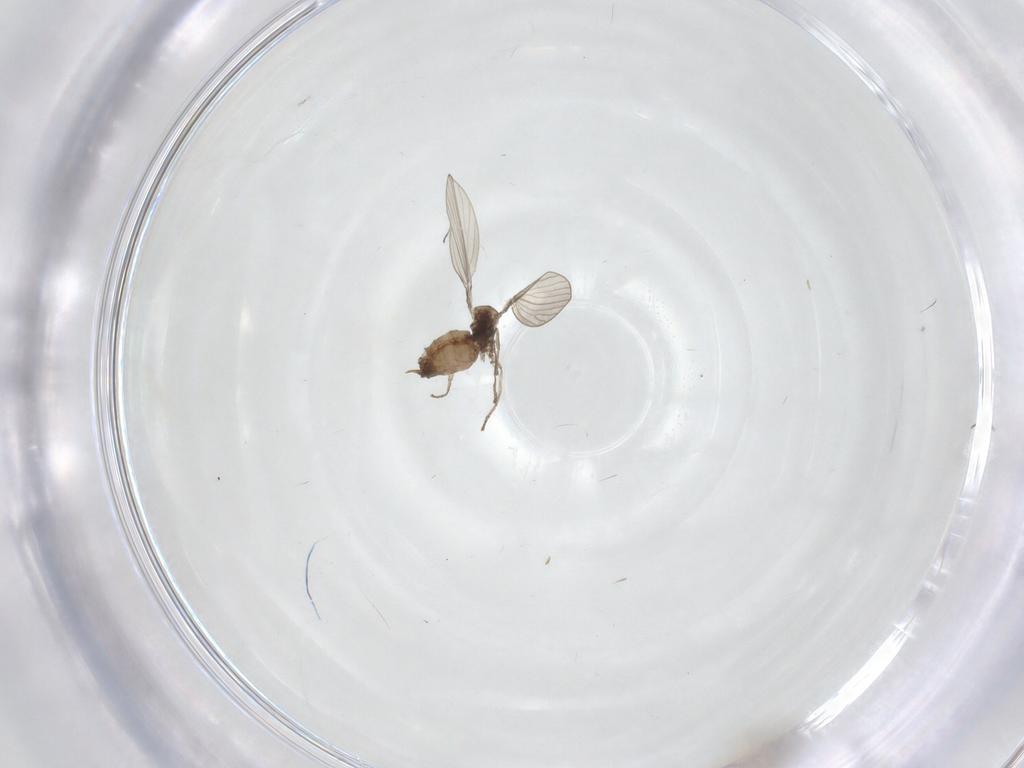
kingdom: Animalia
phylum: Arthropoda
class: Insecta
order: Diptera
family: Psychodidae
